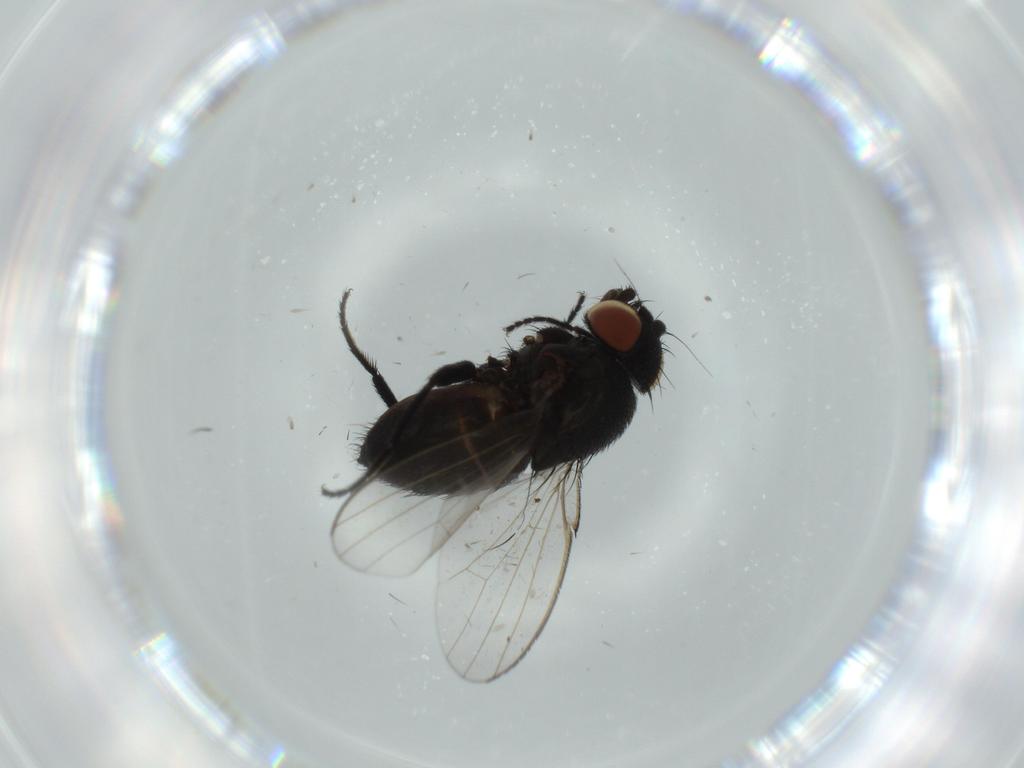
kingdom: Animalia
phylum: Arthropoda
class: Insecta
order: Diptera
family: Milichiidae
